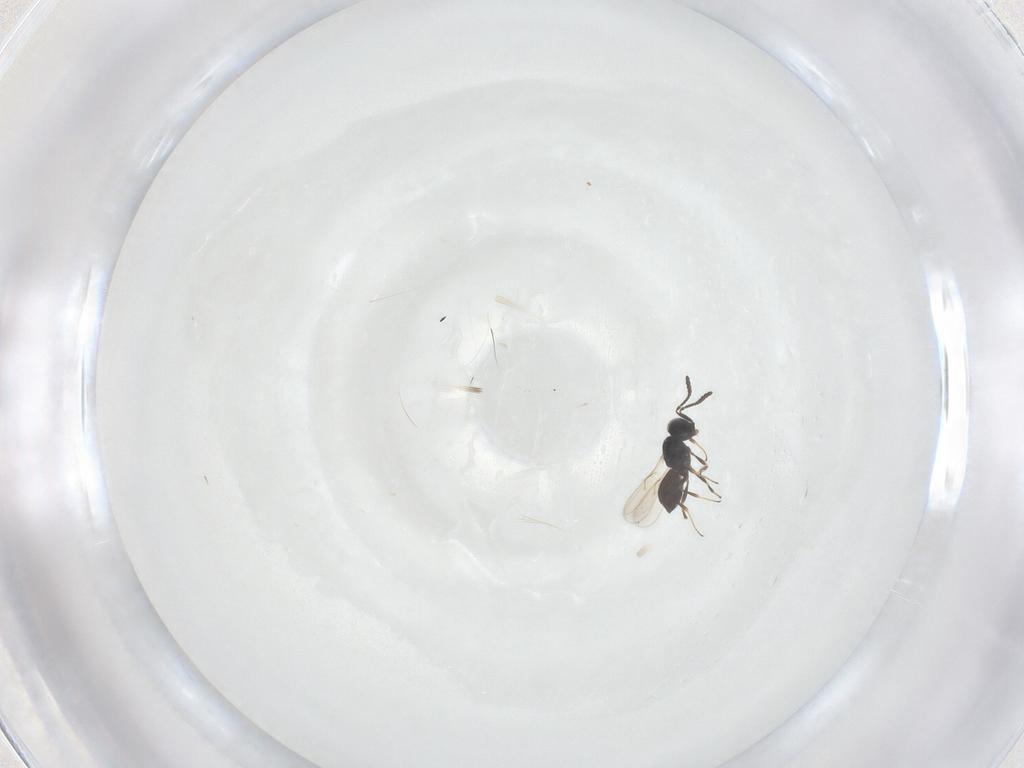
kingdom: Animalia
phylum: Arthropoda
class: Insecta
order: Hymenoptera
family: Scelionidae
